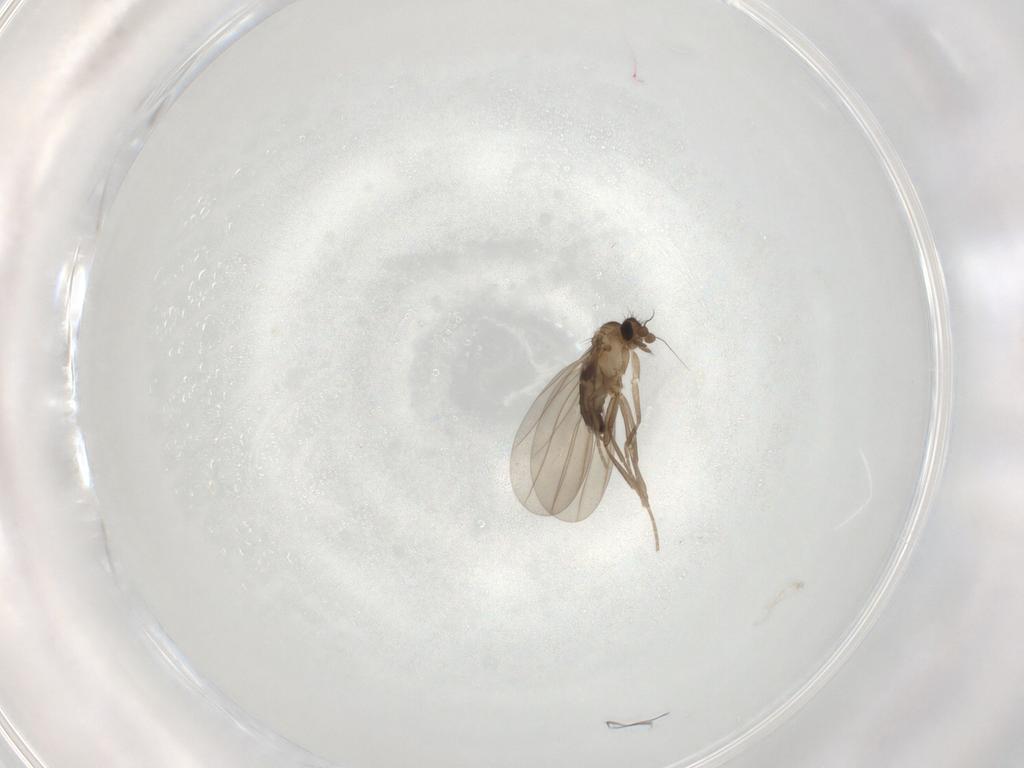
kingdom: Animalia
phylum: Arthropoda
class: Insecta
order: Diptera
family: Phoridae
